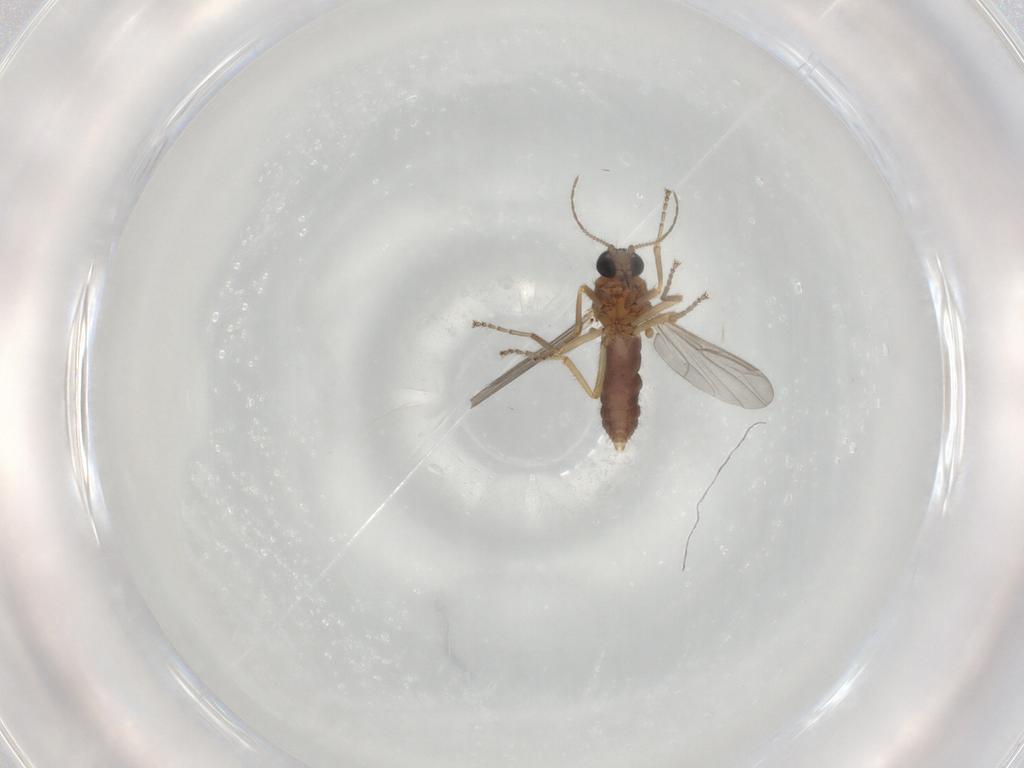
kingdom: Animalia
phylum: Arthropoda
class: Insecta
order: Diptera
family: Ceratopogonidae
